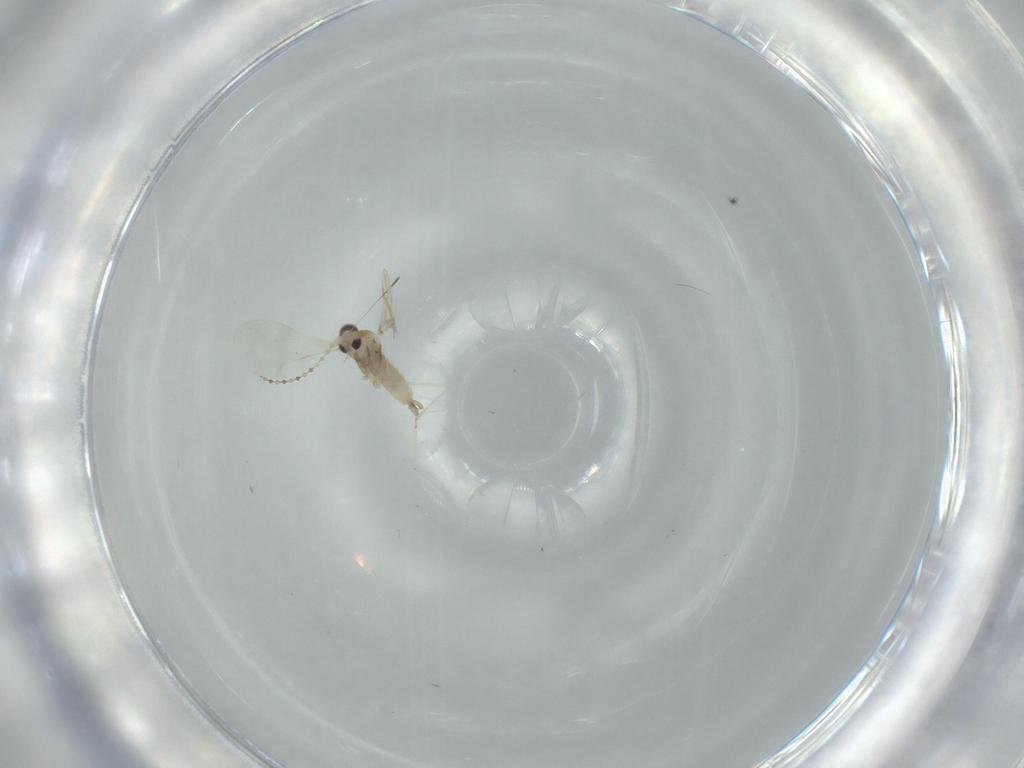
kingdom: Animalia
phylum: Arthropoda
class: Insecta
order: Diptera
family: Cecidomyiidae
